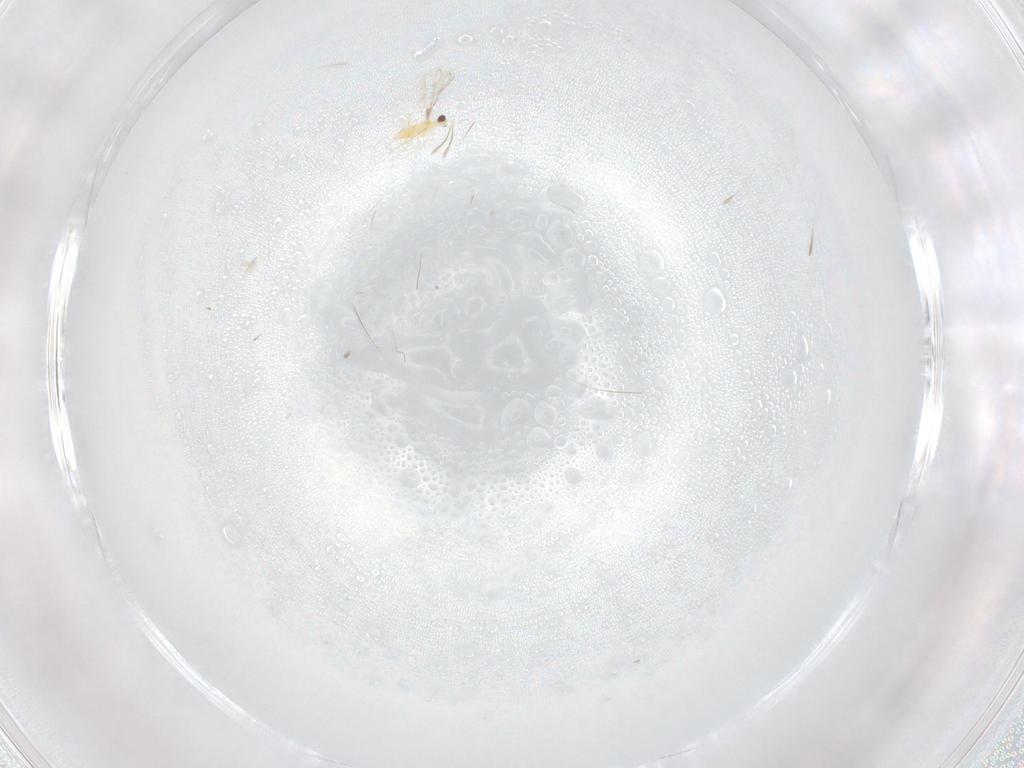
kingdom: Animalia
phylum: Arthropoda
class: Insecta
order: Hymenoptera
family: Mymaridae
